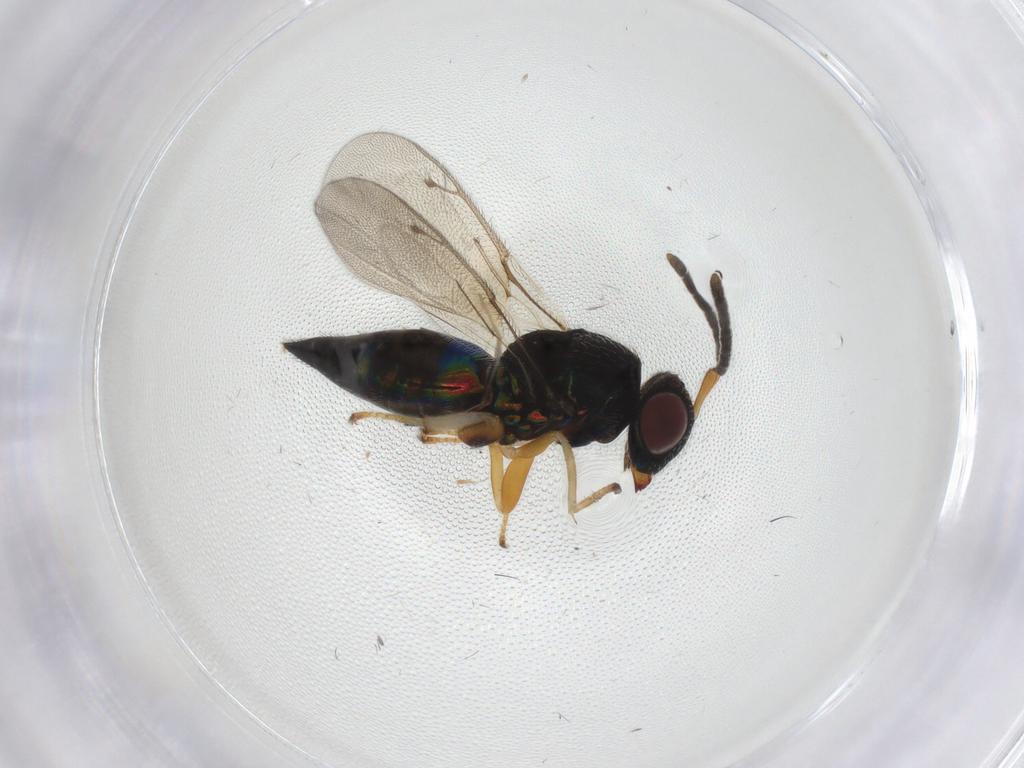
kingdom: Animalia
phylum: Arthropoda
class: Insecta
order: Hymenoptera
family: Pteromalidae
